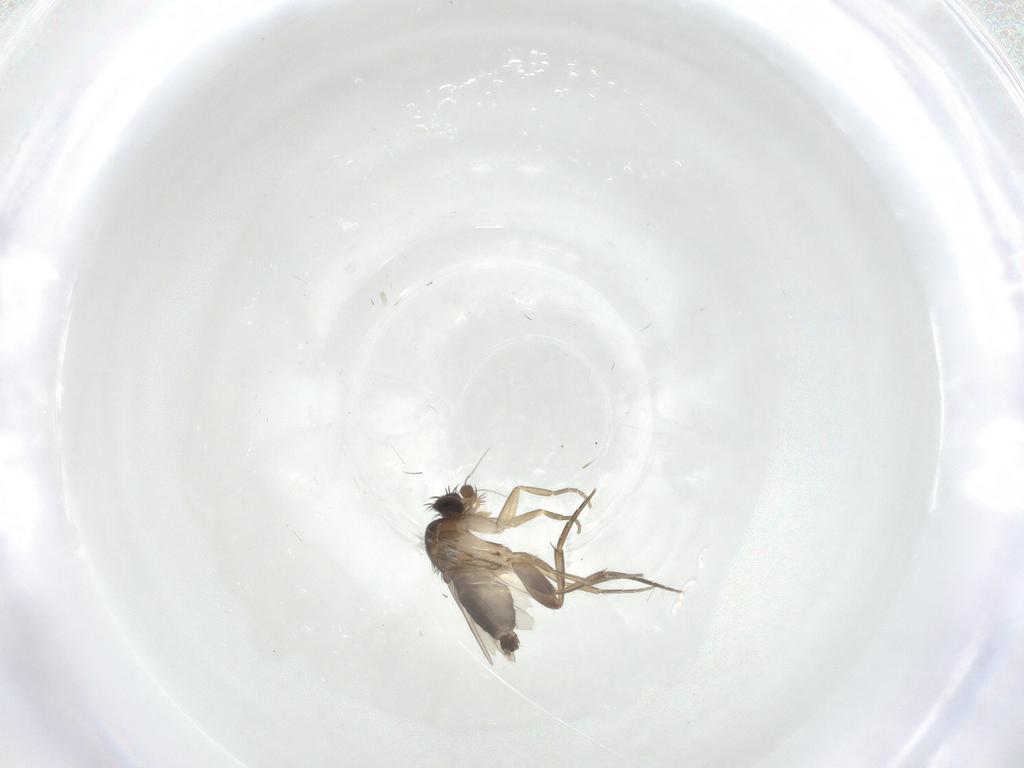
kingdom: Animalia
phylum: Arthropoda
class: Insecta
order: Diptera
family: Phoridae
